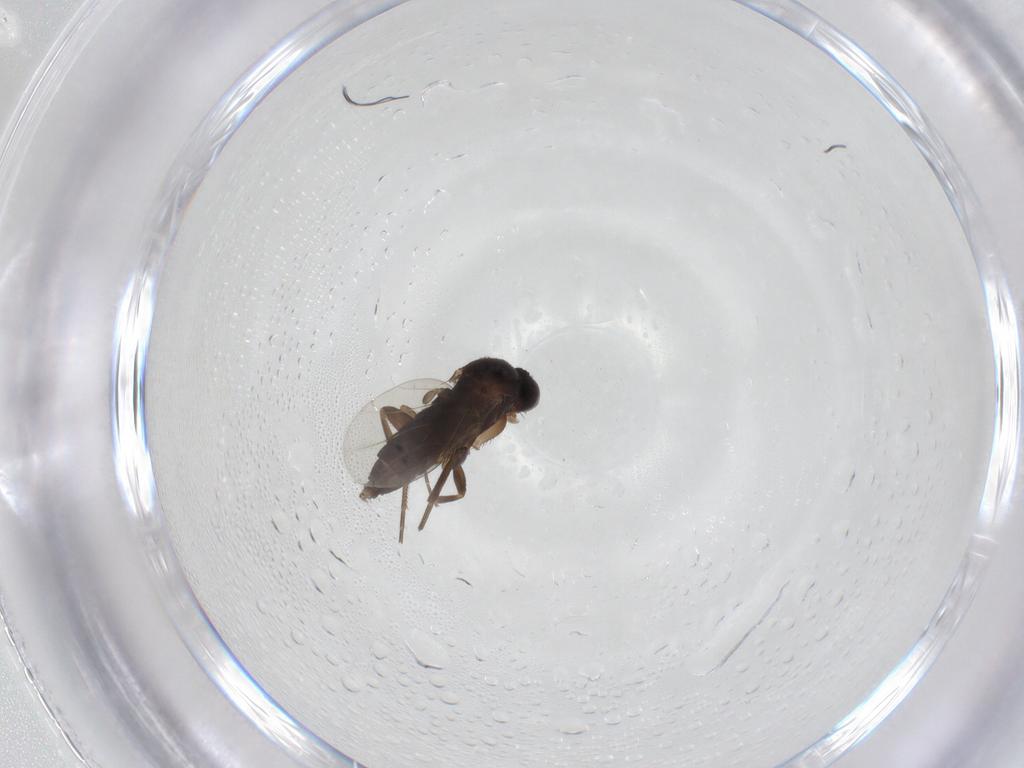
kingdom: Animalia
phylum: Arthropoda
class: Insecta
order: Diptera
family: Phoridae
